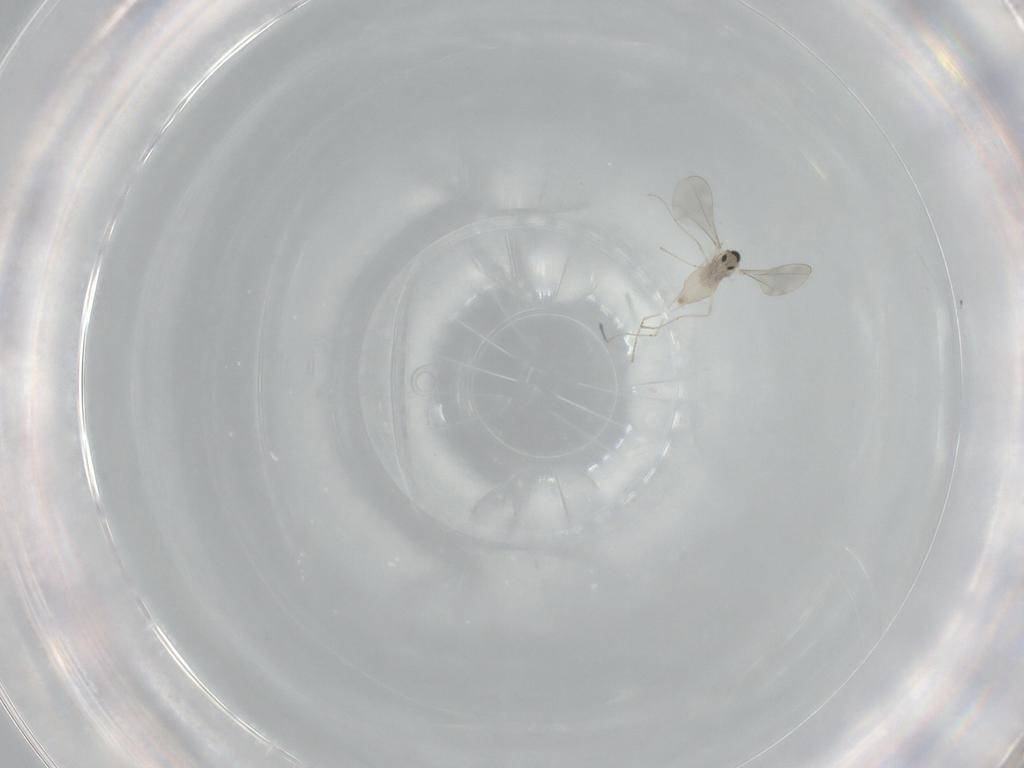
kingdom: Animalia
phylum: Arthropoda
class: Insecta
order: Diptera
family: Cecidomyiidae
